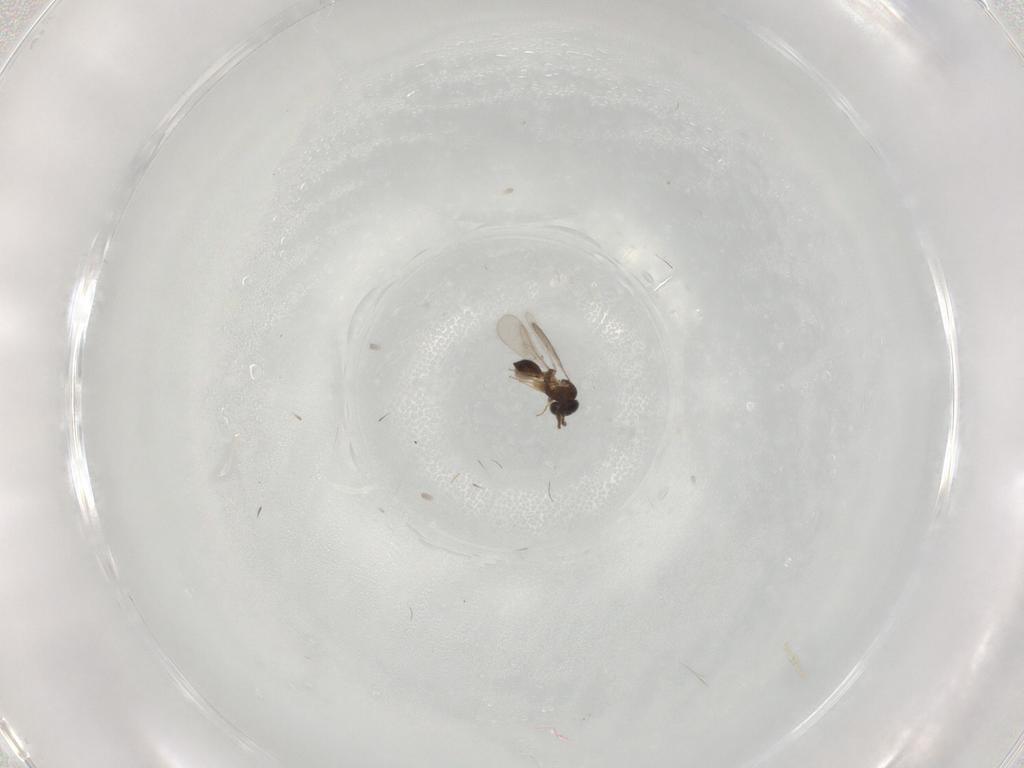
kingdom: Animalia
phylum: Arthropoda
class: Insecta
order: Hymenoptera
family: Scelionidae
